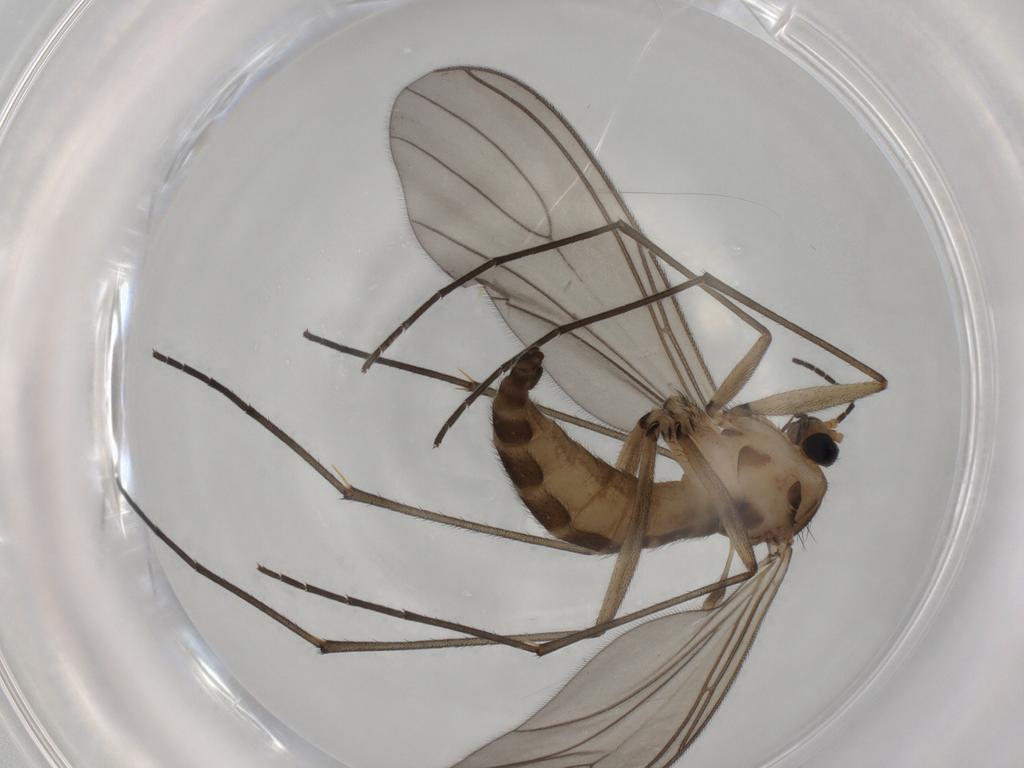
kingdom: Animalia
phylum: Arthropoda
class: Insecta
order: Diptera
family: Sciaridae
